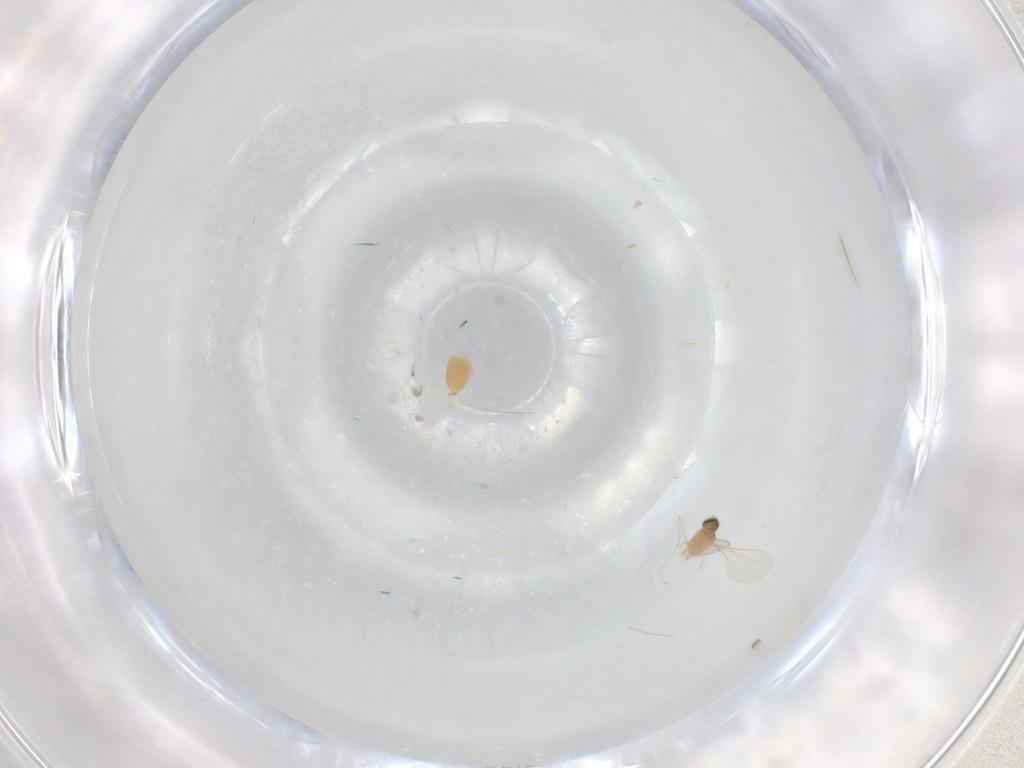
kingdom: Animalia
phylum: Arthropoda
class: Insecta
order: Diptera
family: Cecidomyiidae
